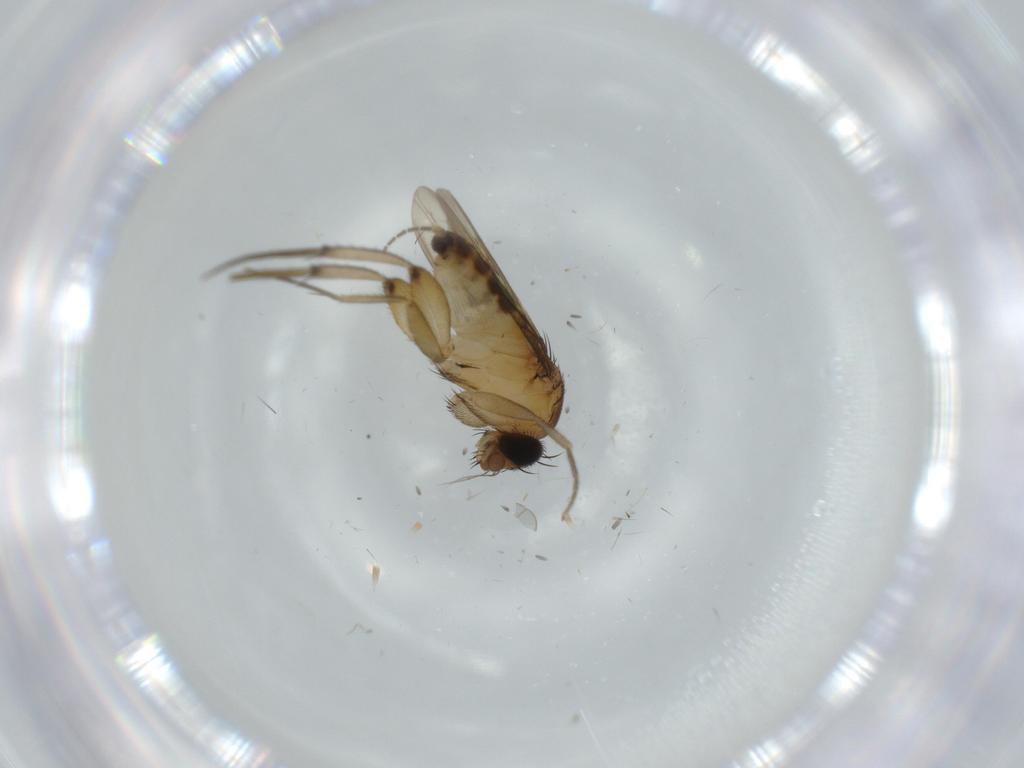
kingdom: Animalia
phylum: Arthropoda
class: Insecta
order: Diptera
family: Phoridae
